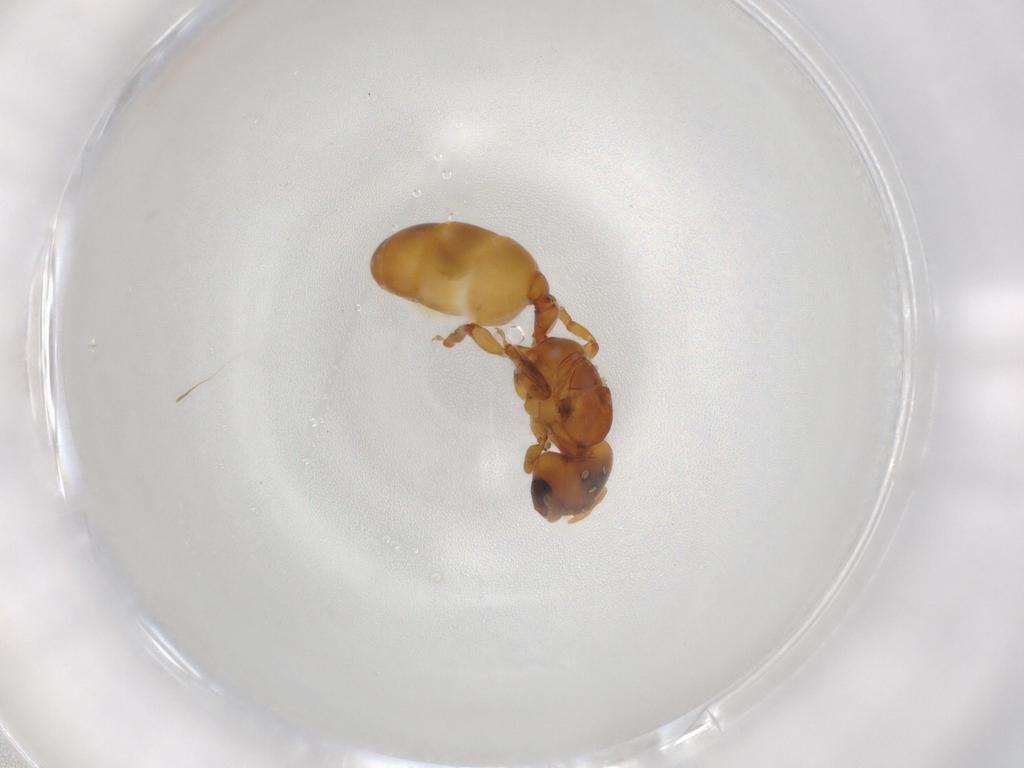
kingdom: Animalia
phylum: Arthropoda
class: Insecta
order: Hymenoptera
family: Formicidae
